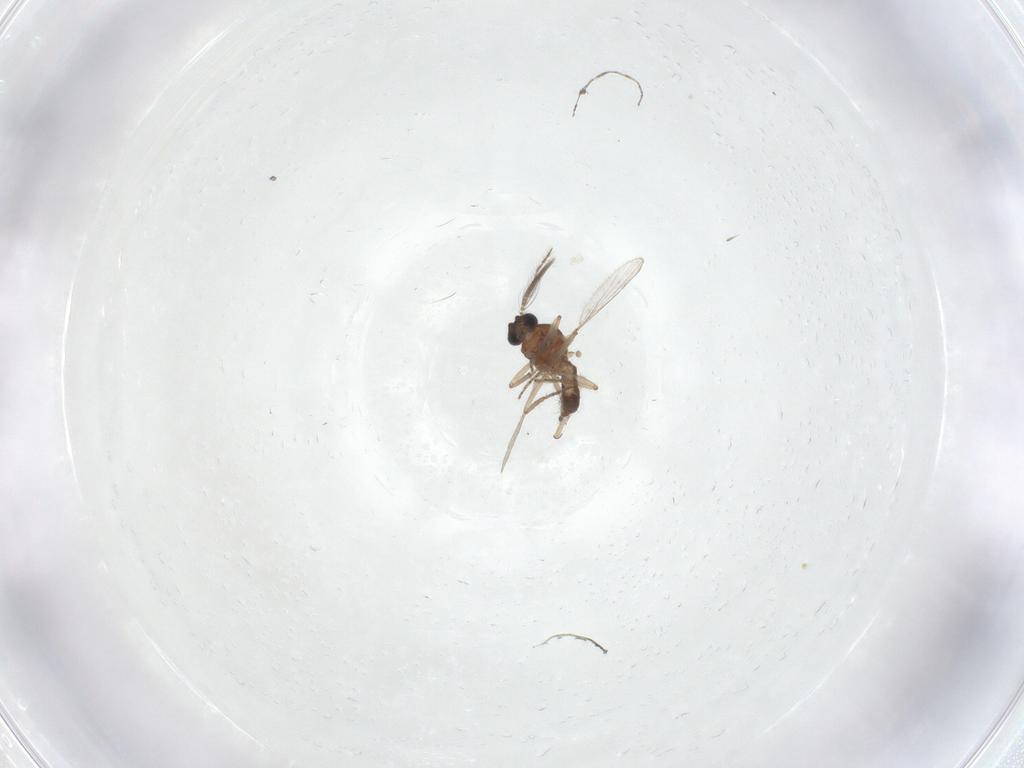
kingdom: Animalia
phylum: Arthropoda
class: Insecta
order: Diptera
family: Ceratopogonidae
